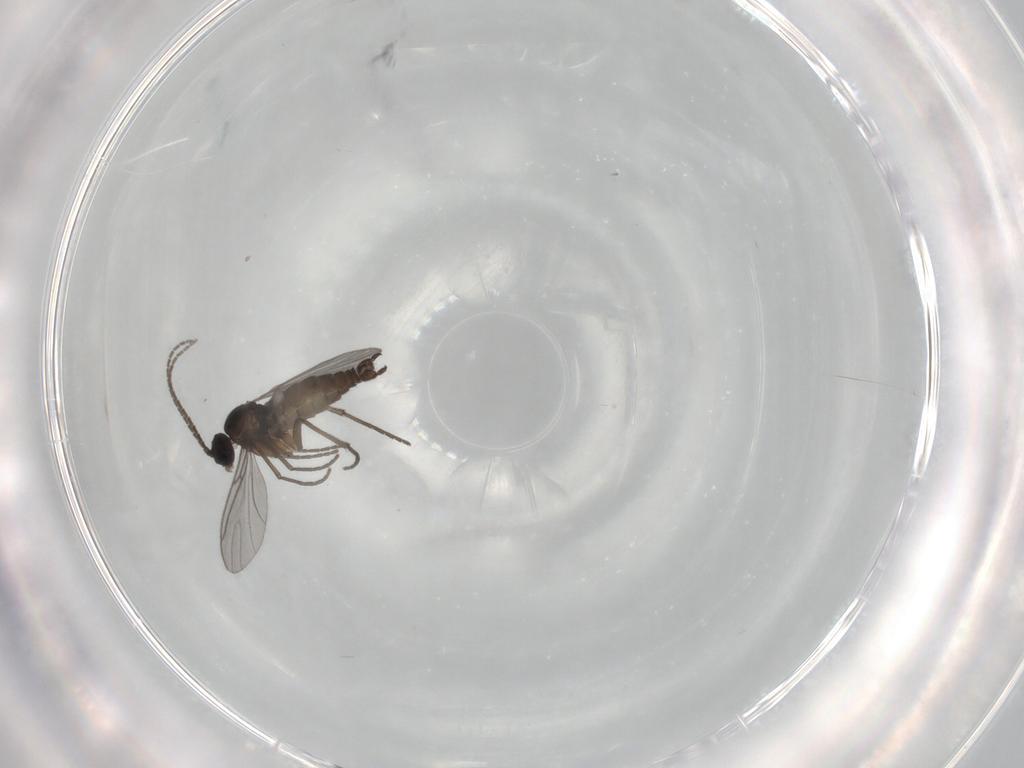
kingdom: Animalia
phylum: Arthropoda
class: Insecta
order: Diptera
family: Sciaridae
